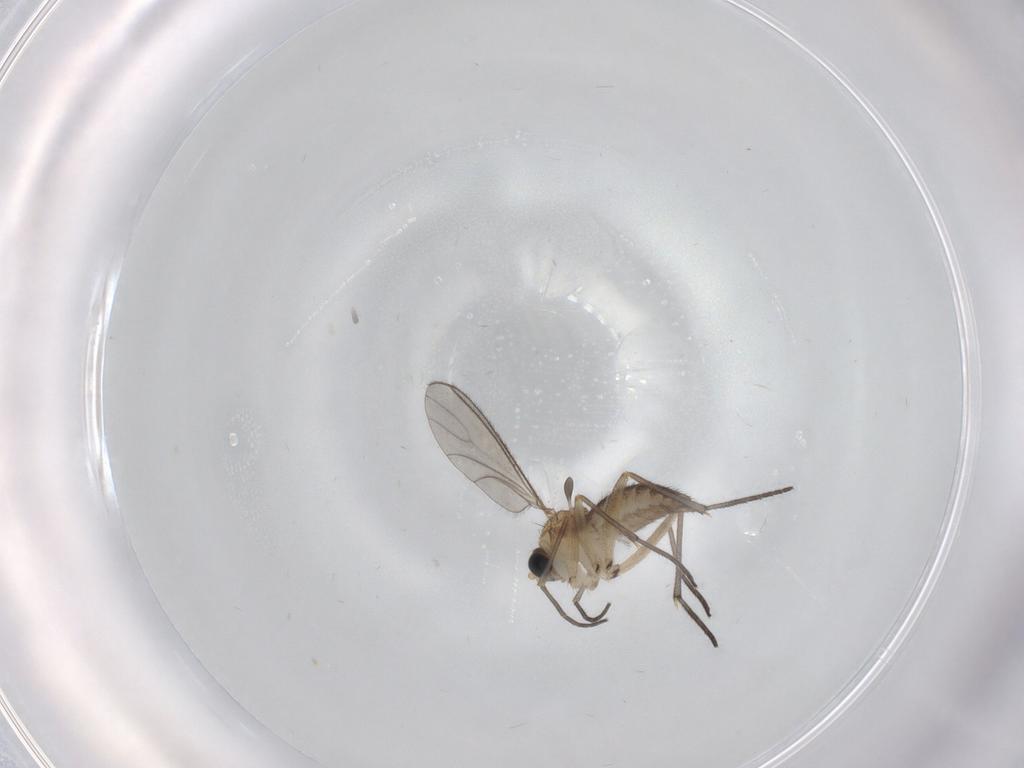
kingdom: Animalia
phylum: Arthropoda
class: Insecta
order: Diptera
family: Sciaridae
